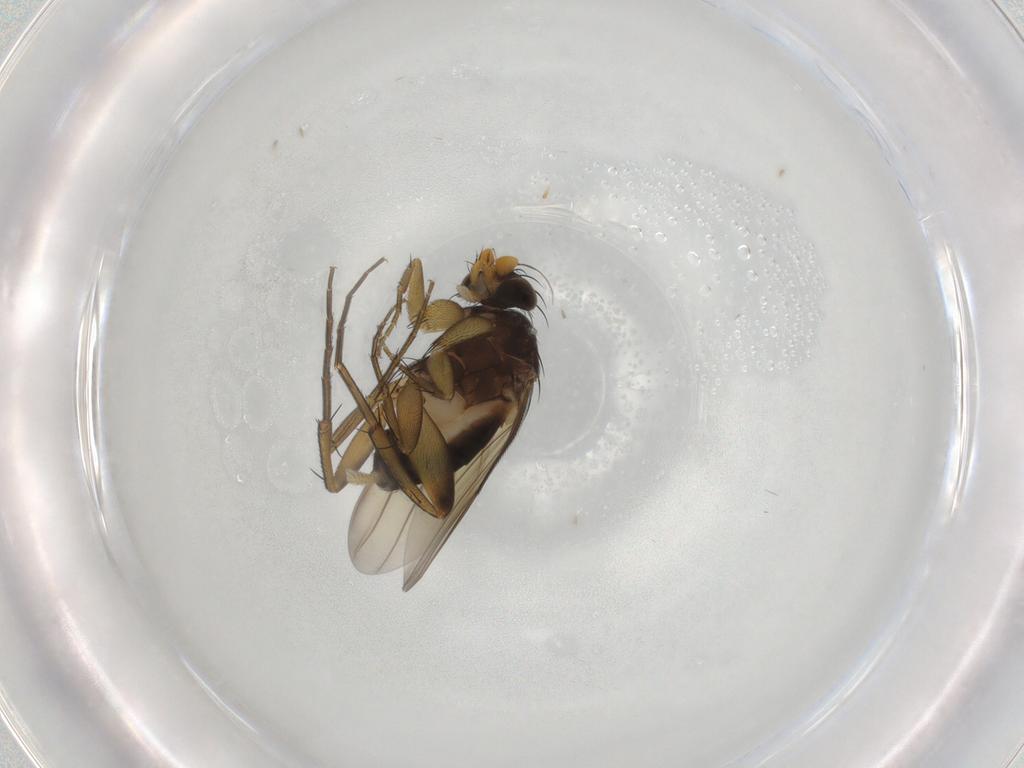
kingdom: Animalia
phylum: Arthropoda
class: Insecta
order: Diptera
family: Phoridae
